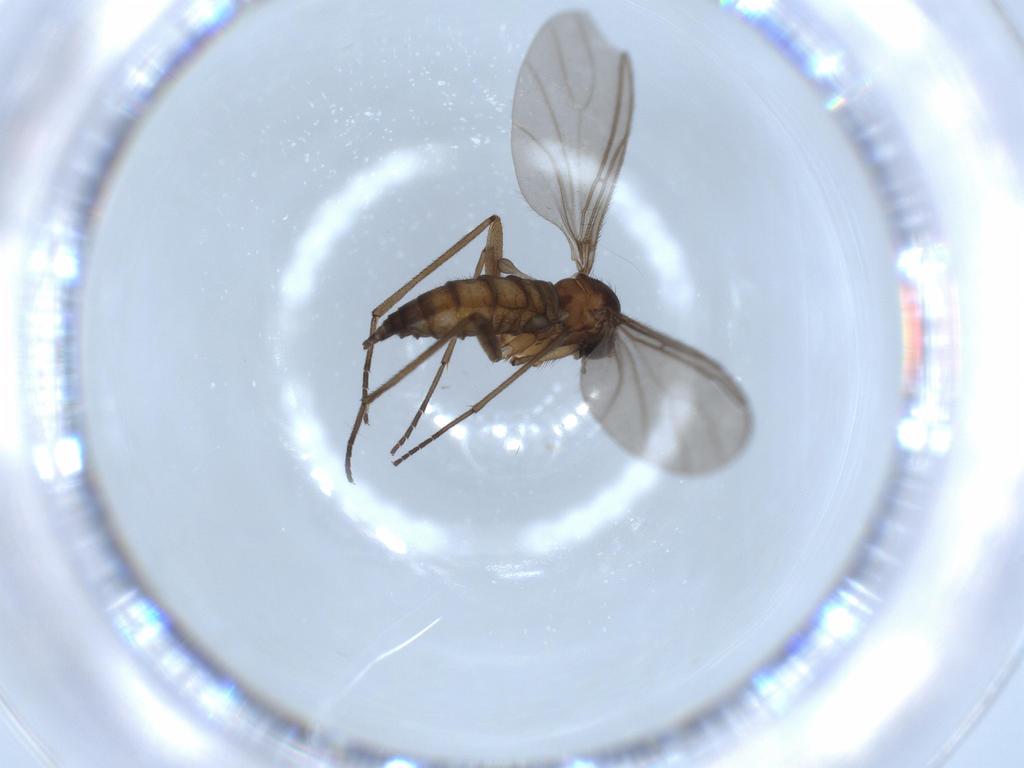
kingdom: Animalia
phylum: Arthropoda
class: Insecta
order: Diptera
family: Sciaridae
